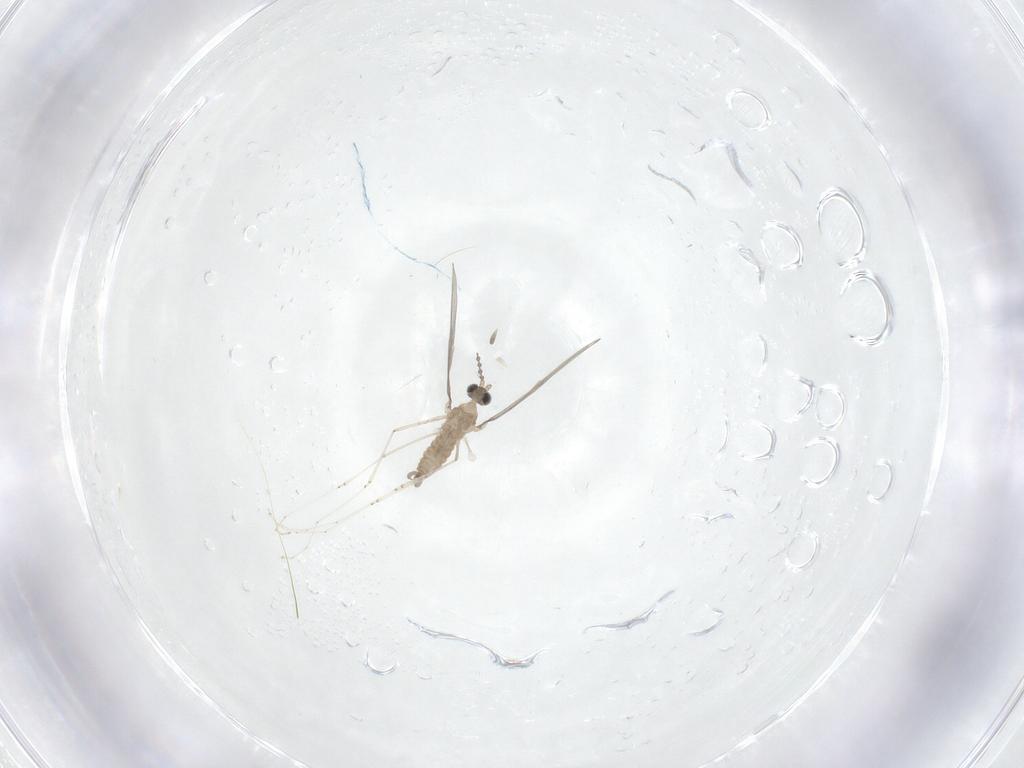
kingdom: Animalia
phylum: Arthropoda
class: Insecta
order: Diptera
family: Cecidomyiidae
